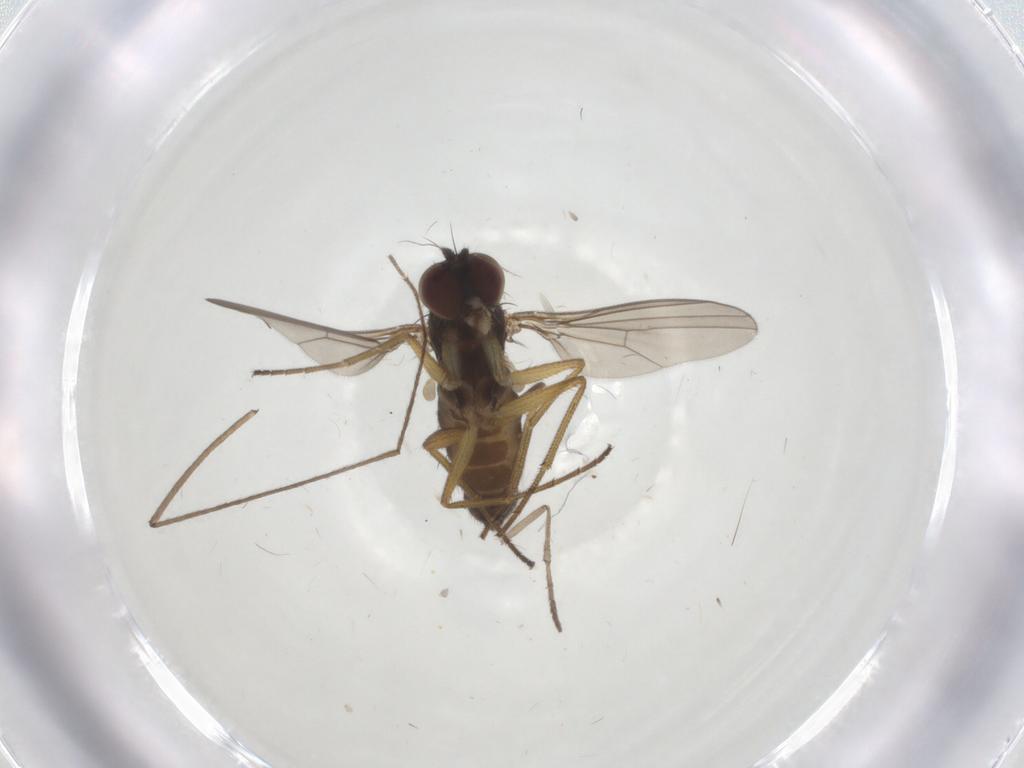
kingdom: Animalia
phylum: Arthropoda
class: Insecta
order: Diptera
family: Dolichopodidae
